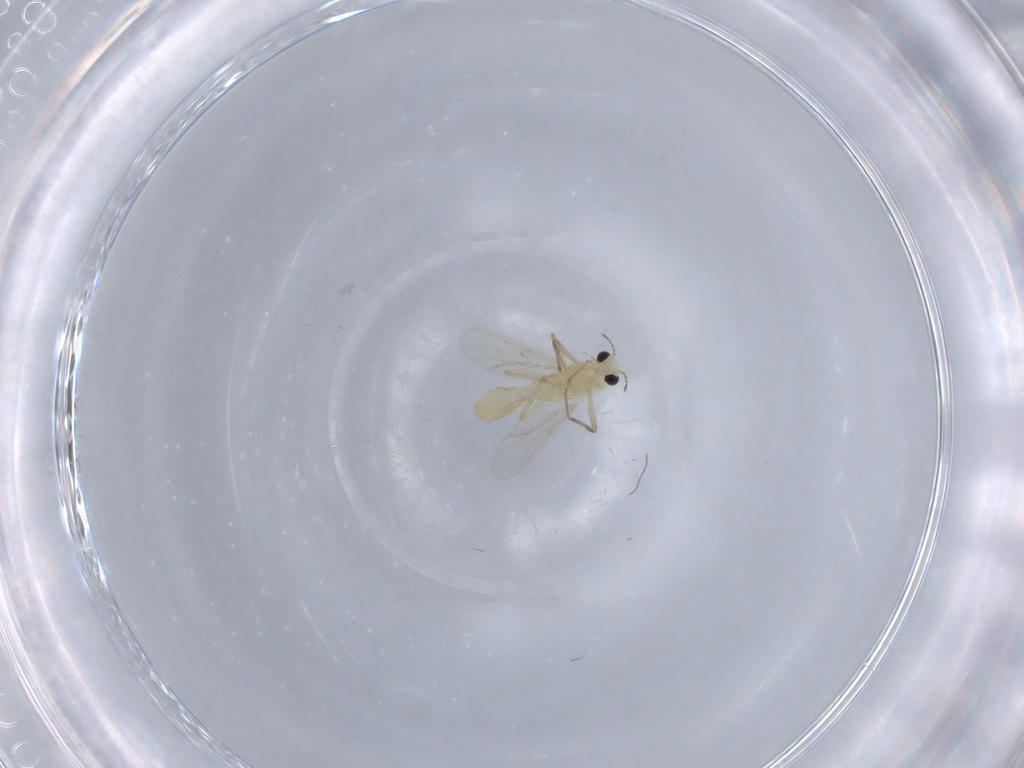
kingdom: Animalia
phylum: Arthropoda
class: Insecta
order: Diptera
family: Chironomidae
